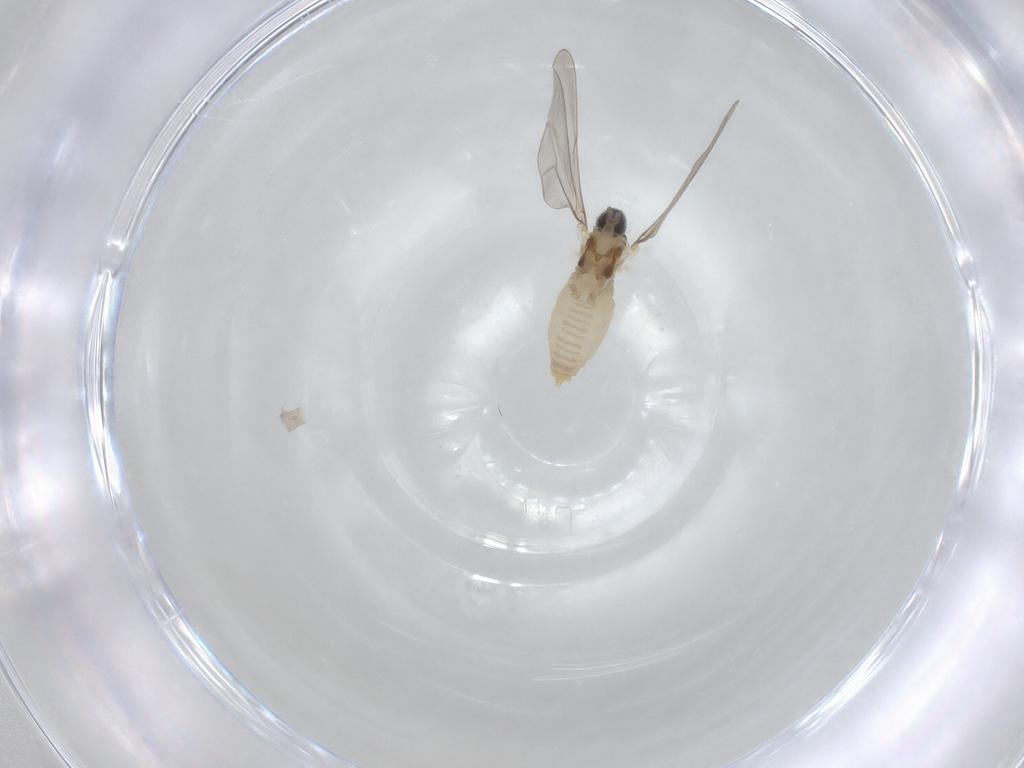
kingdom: Animalia
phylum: Arthropoda
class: Insecta
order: Diptera
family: Cecidomyiidae
